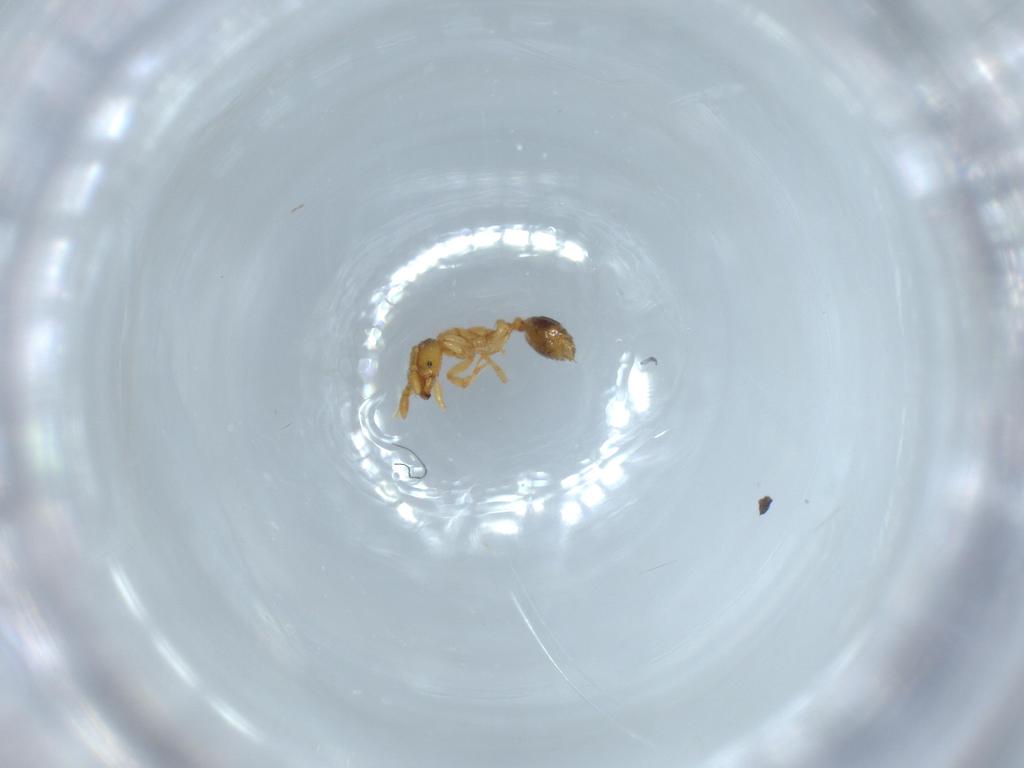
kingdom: Animalia
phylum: Arthropoda
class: Insecta
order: Hymenoptera
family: Formicidae
